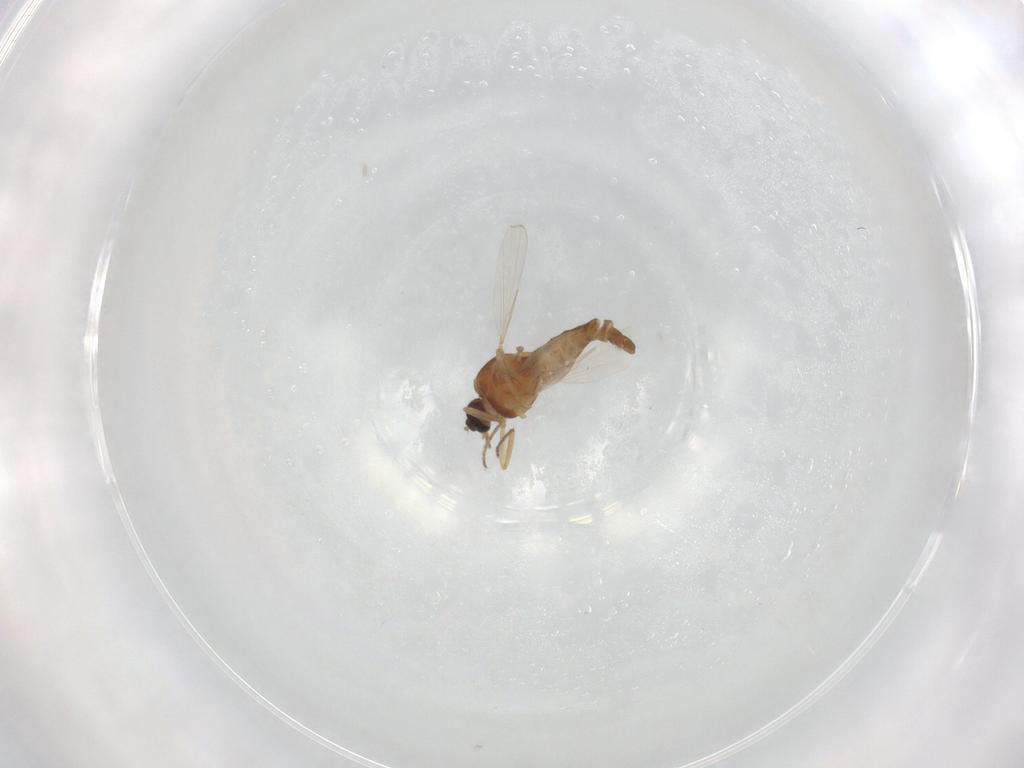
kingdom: Animalia
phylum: Arthropoda
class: Insecta
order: Diptera
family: Ceratopogonidae
